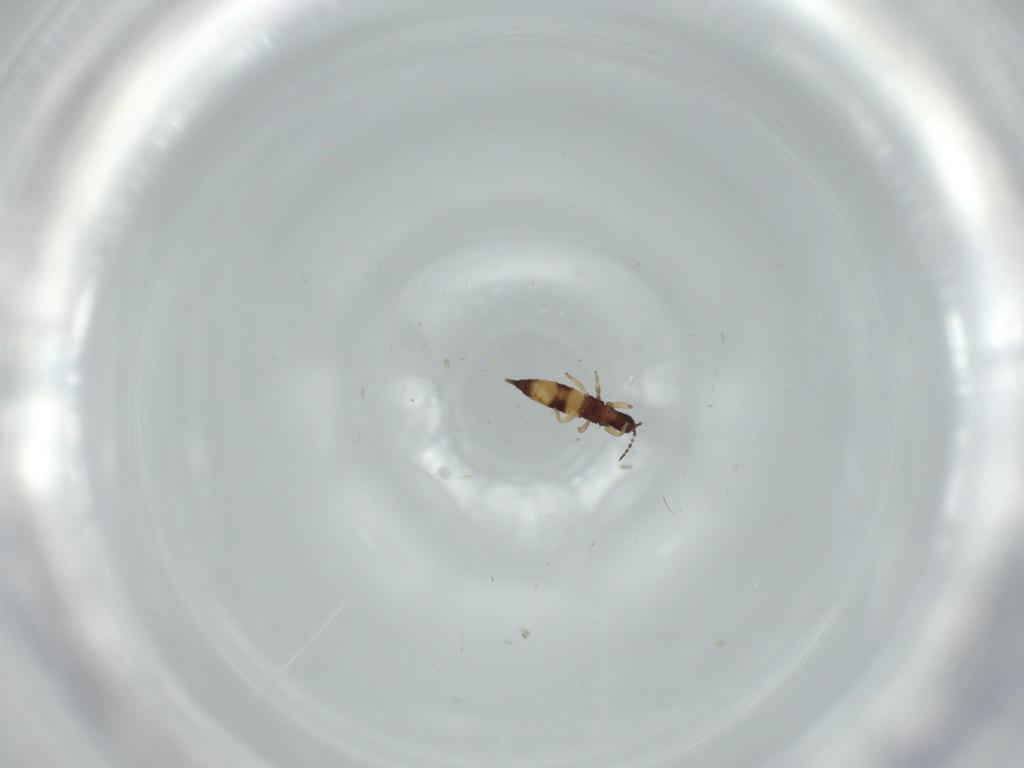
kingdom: Animalia
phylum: Arthropoda
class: Insecta
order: Thysanoptera
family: Phlaeothripidae
